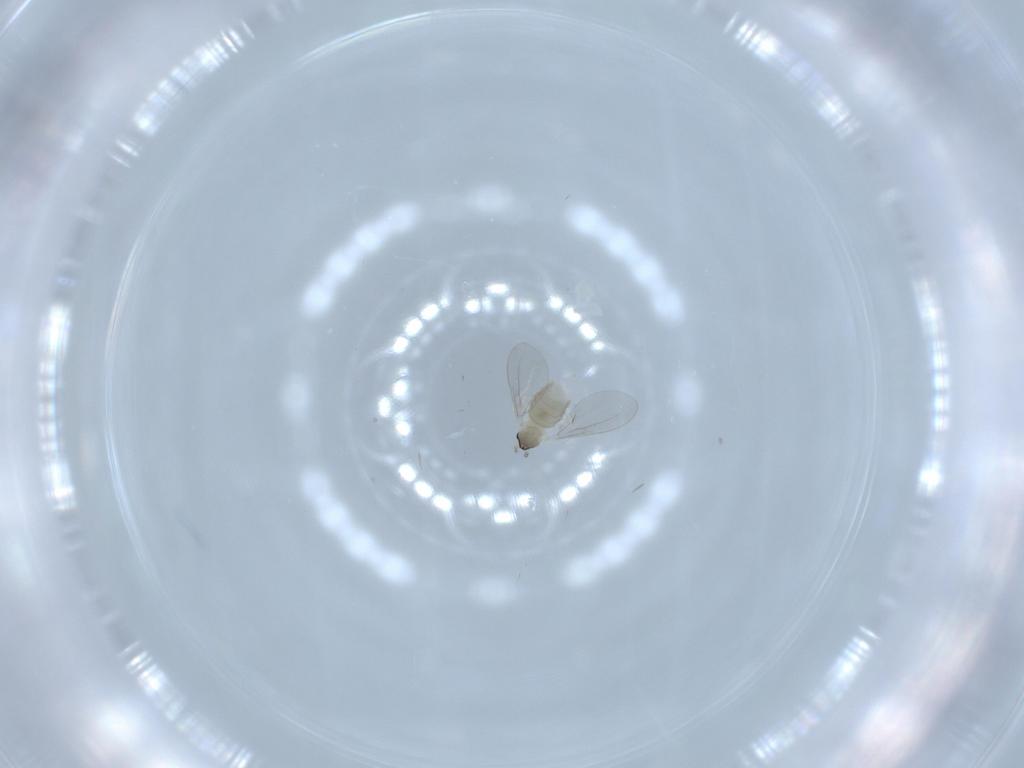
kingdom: Animalia
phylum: Arthropoda
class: Insecta
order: Diptera
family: Cecidomyiidae
